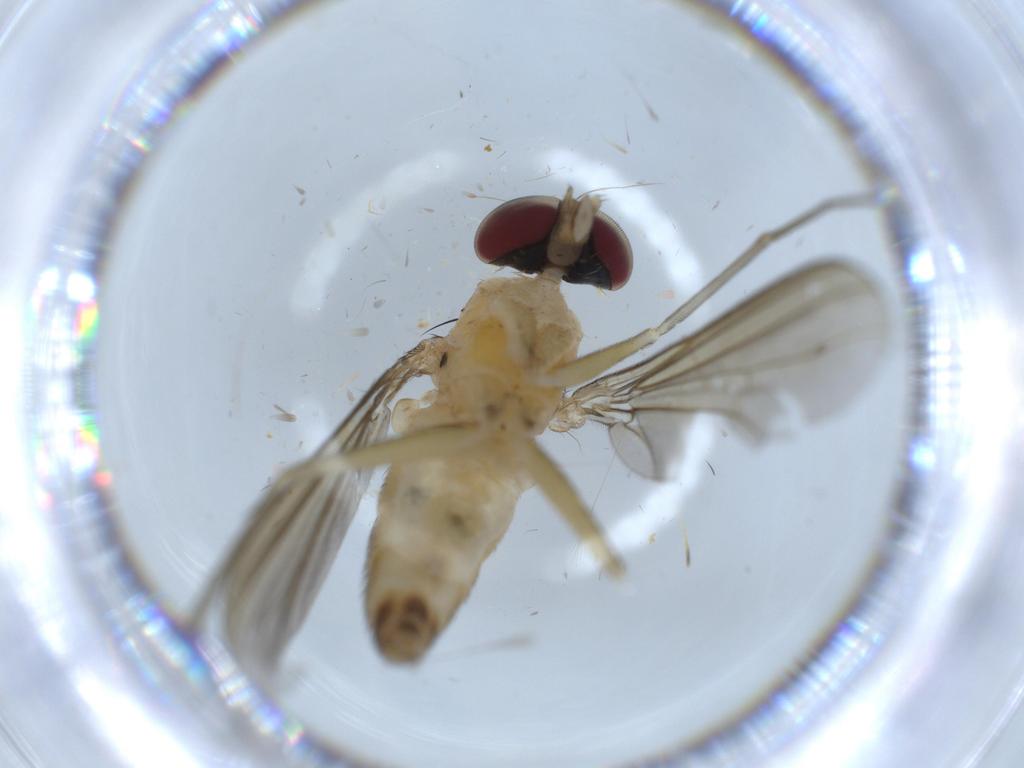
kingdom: Animalia
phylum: Arthropoda
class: Insecta
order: Diptera
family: Dolichopodidae
